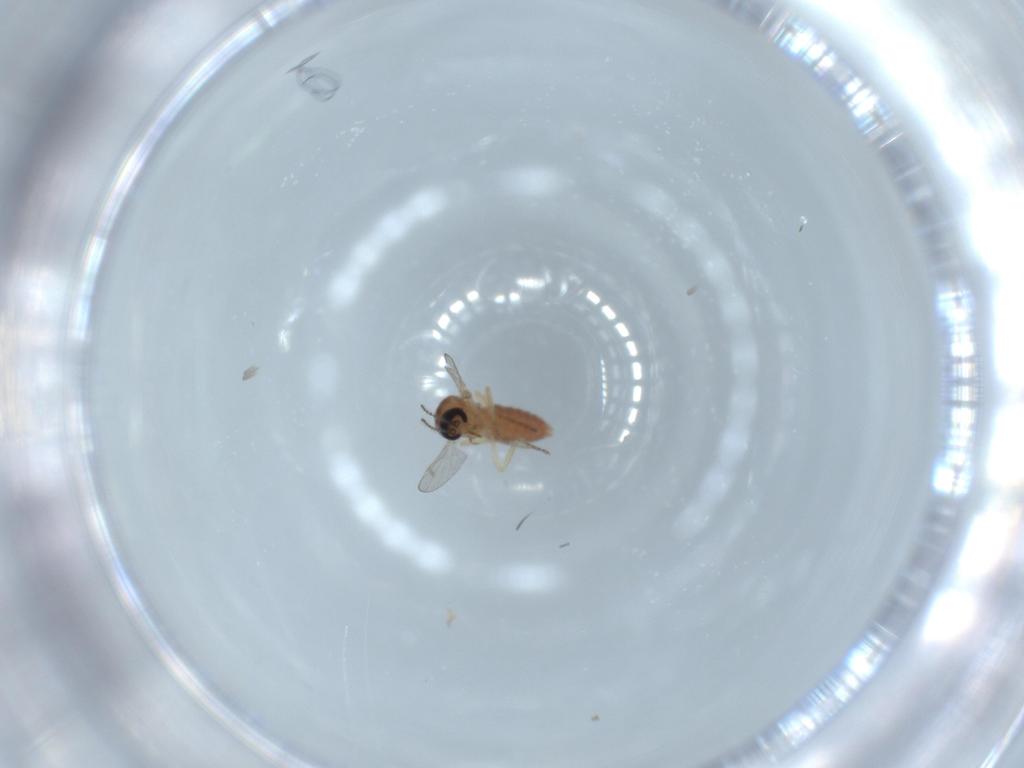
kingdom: Animalia
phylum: Arthropoda
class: Insecta
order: Diptera
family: Ceratopogonidae
